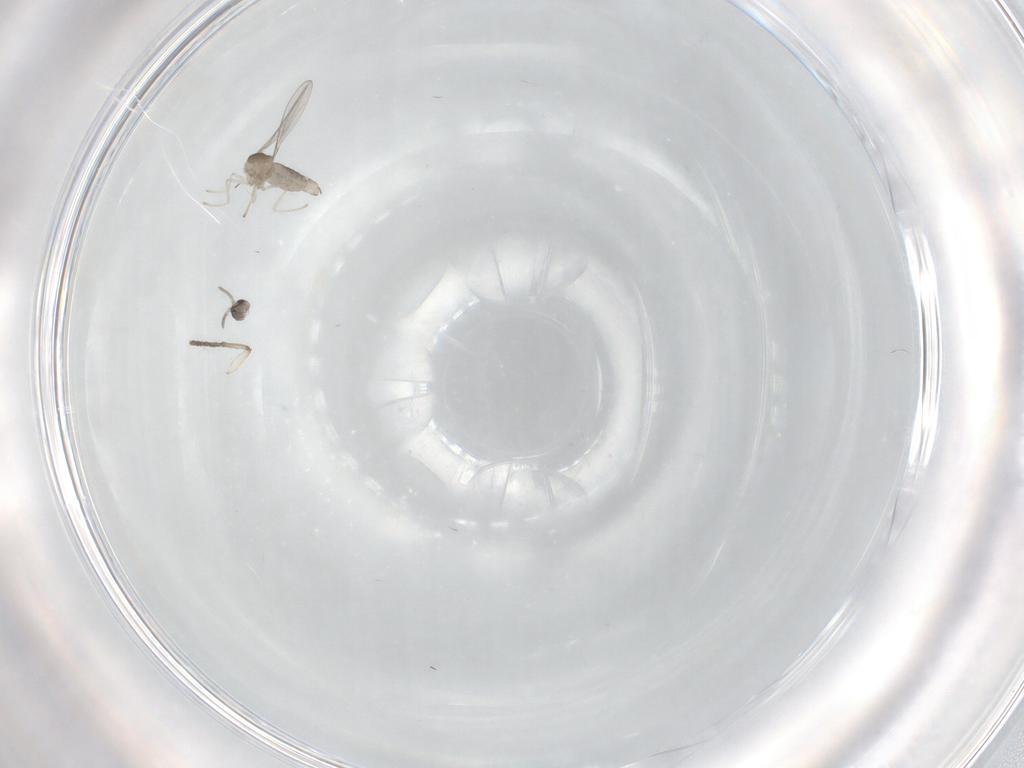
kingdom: Animalia
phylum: Arthropoda
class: Insecta
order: Diptera
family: Cecidomyiidae
